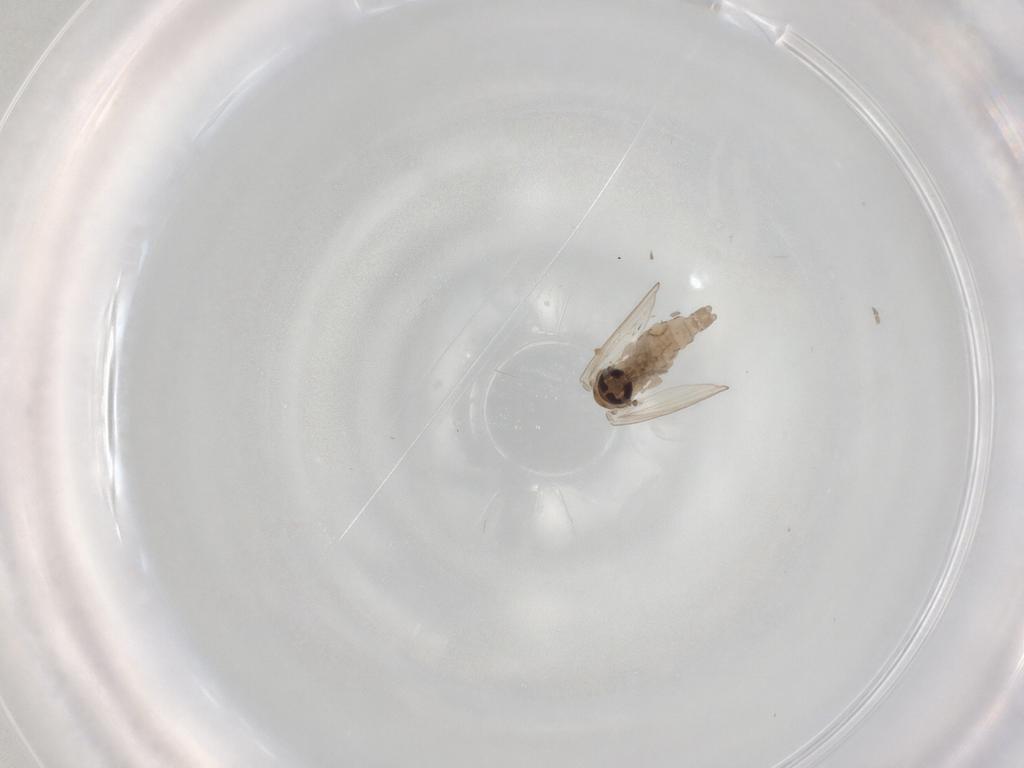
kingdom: Animalia
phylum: Arthropoda
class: Insecta
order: Diptera
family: Psychodidae
